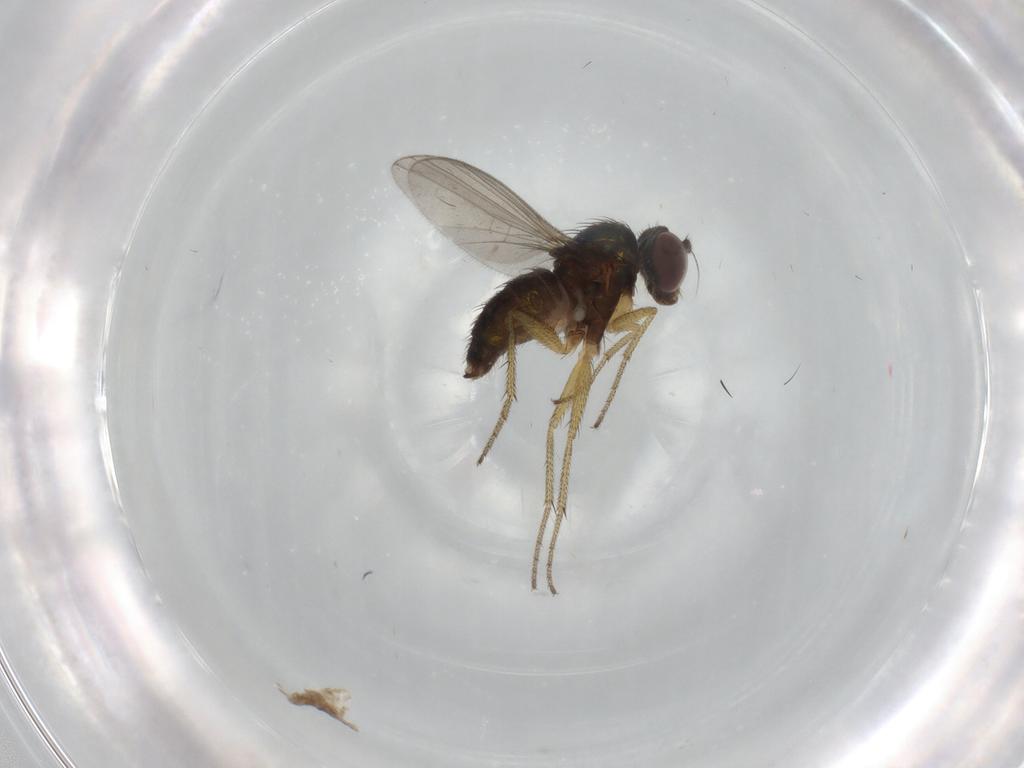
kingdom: Animalia
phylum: Arthropoda
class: Insecta
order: Diptera
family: Dolichopodidae
